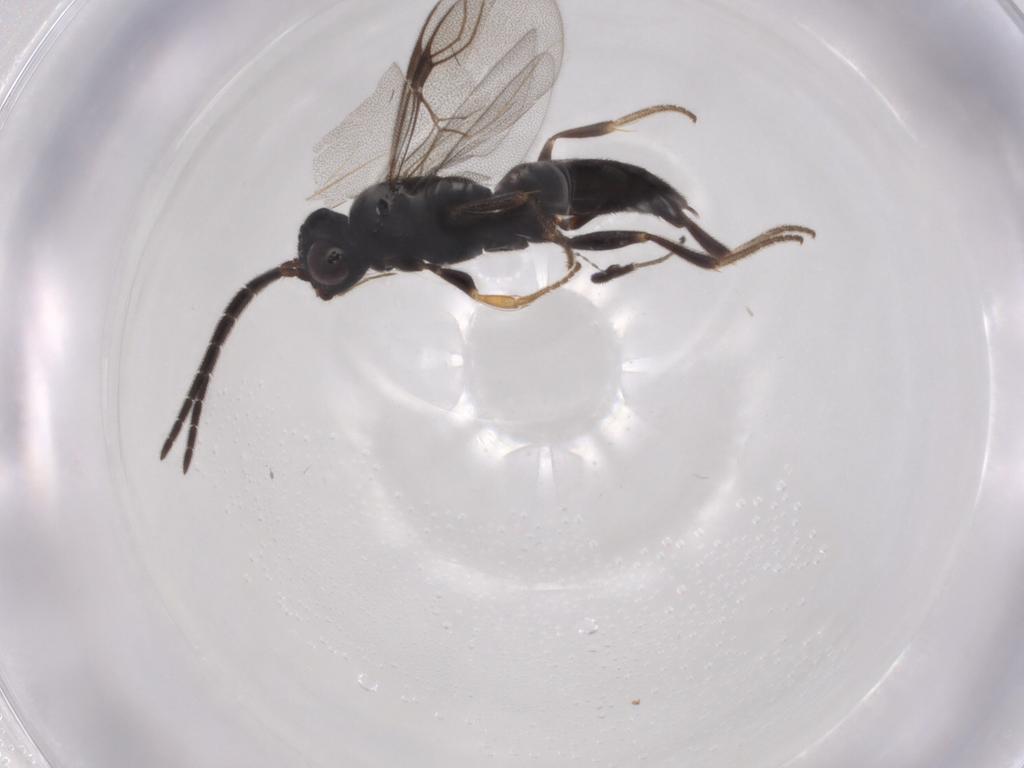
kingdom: Animalia
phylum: Arthropoda
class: Insecta
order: Hymenoptera
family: Dryinidae
